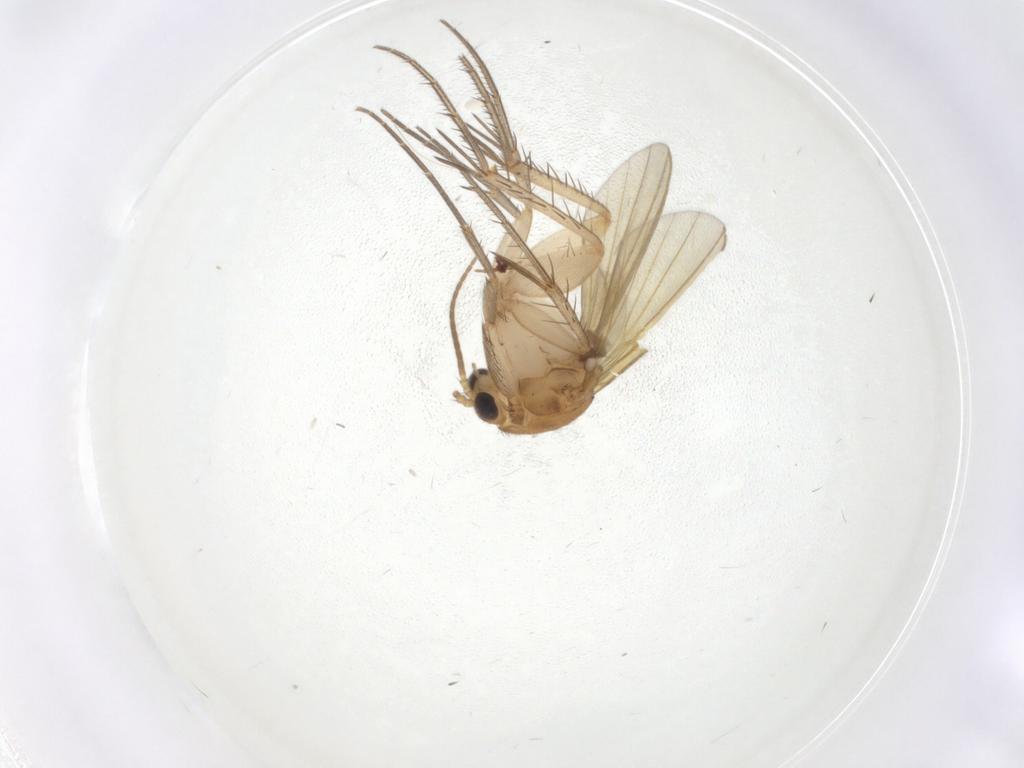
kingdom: Animalia
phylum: Arthropoda
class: Insecta
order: Diptera
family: Mycetophilidae
